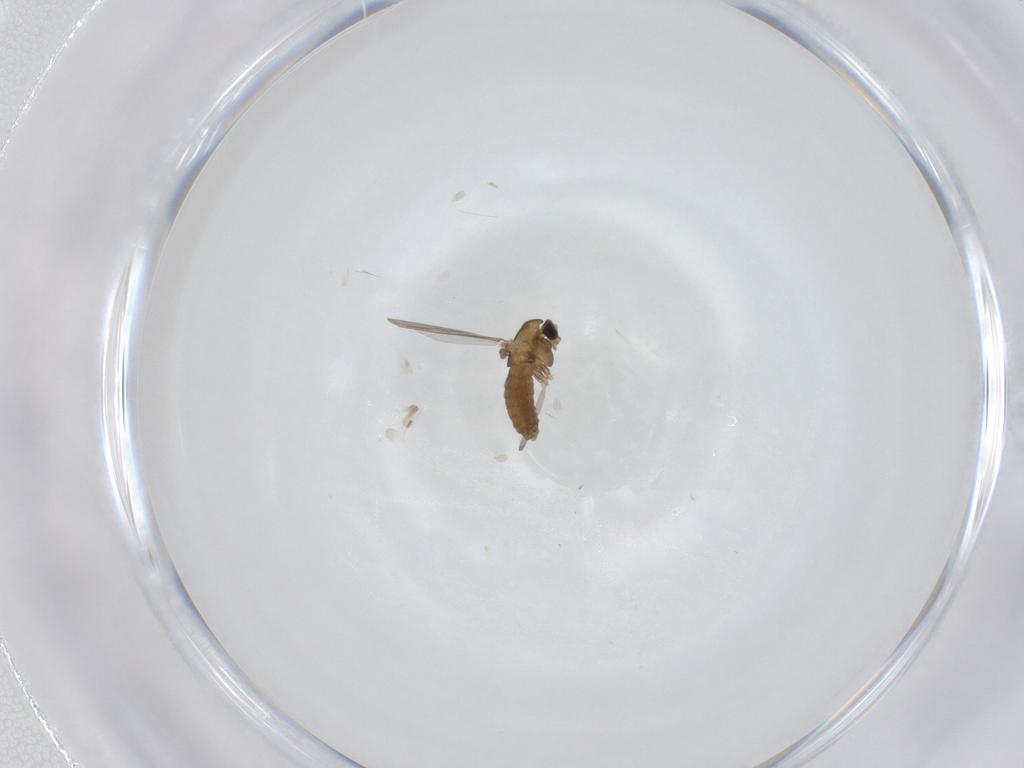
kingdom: Animalia
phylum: Arthropoda
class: Insecta
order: Diptera
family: Chironomidae
